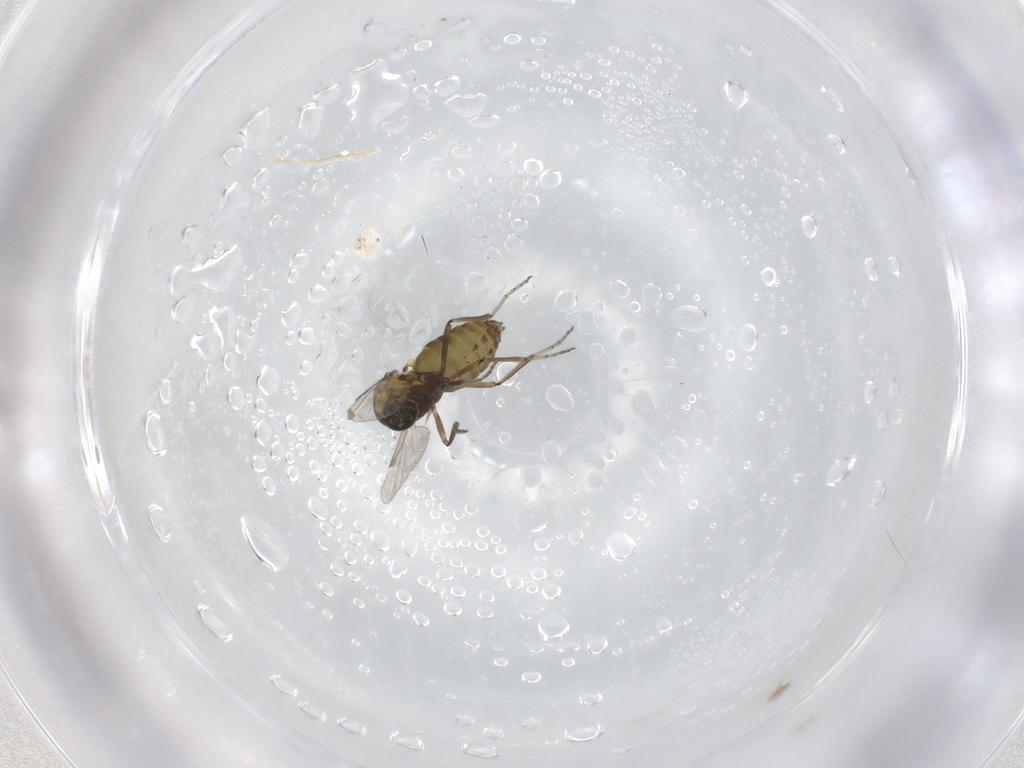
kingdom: Animalia
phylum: Arthropoda
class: Insecta
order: Diptera
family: Ceratopogonidae
